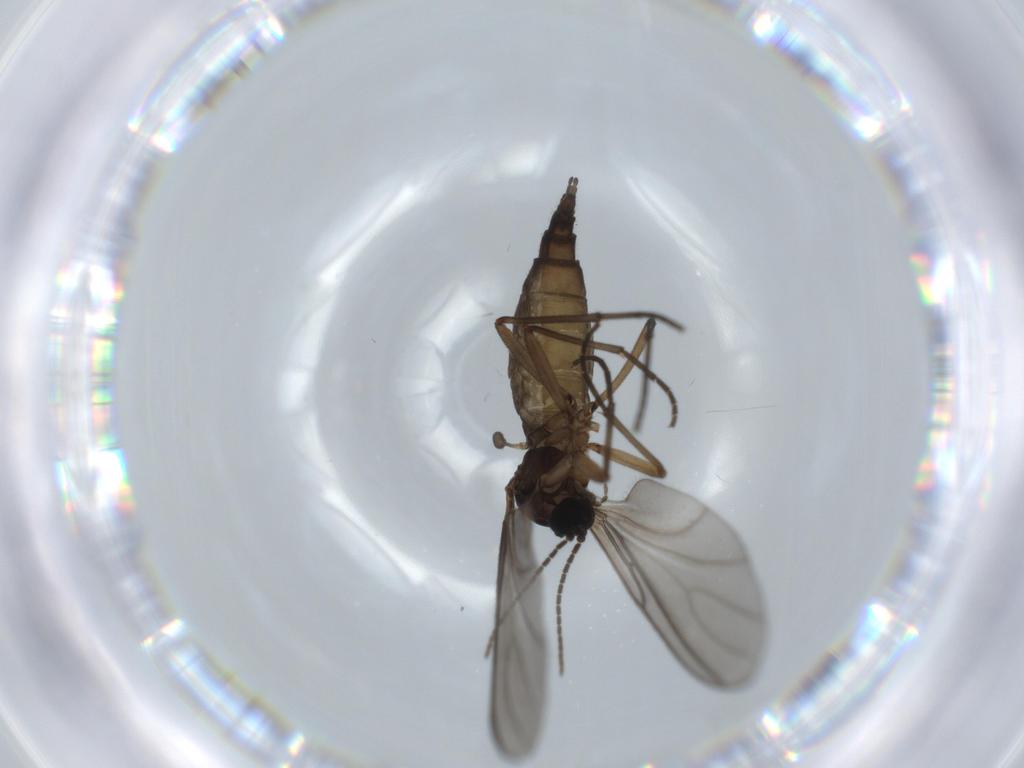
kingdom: Animalia
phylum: Arthropoda
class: Insecta
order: Diptera
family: Sciaridae
